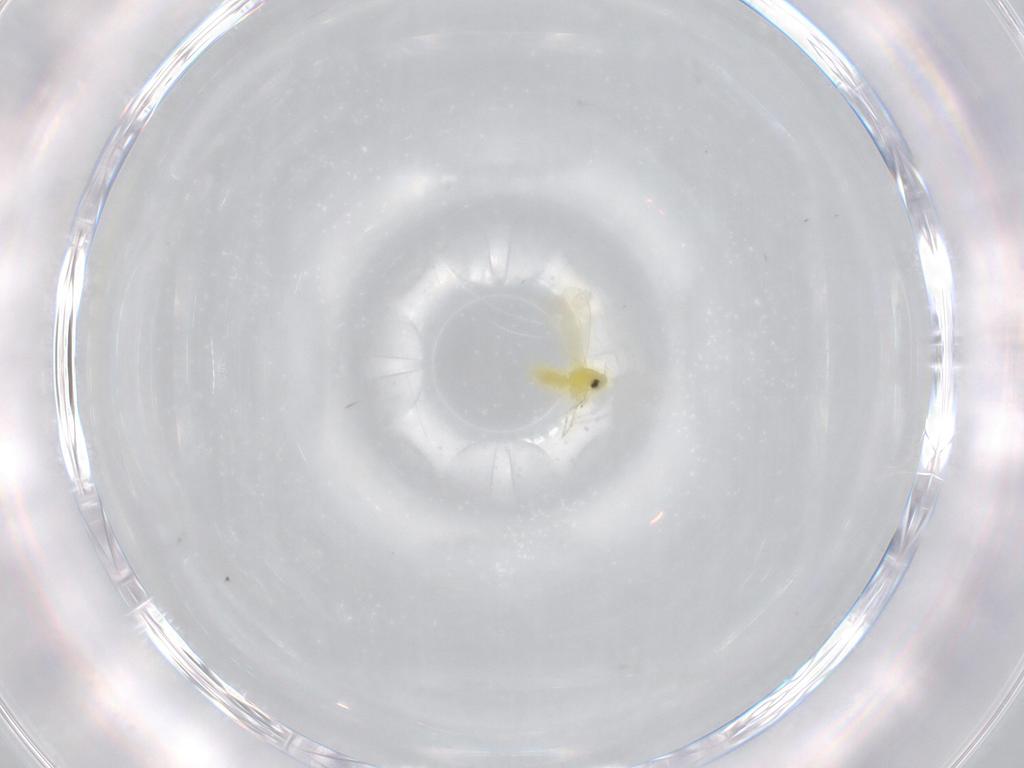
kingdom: Animalia
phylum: Arthropoda
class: Insecta
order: Hemiptera
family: Aleyrodidae
